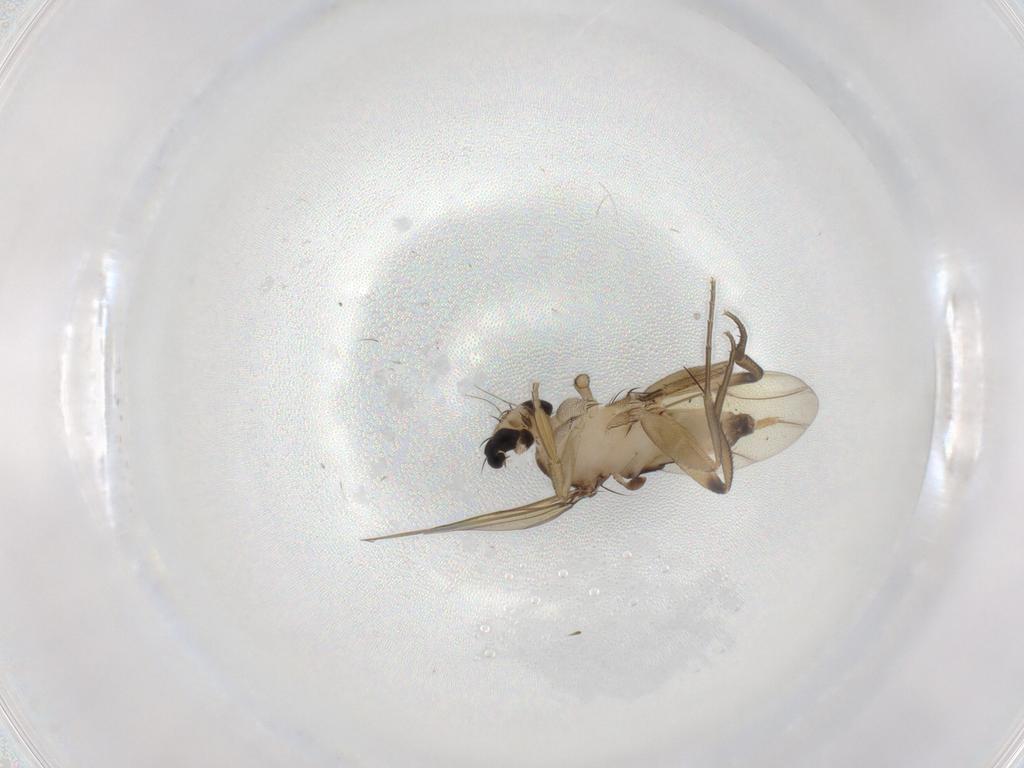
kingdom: Animalia
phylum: Arthropoda
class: Insecta
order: Diptera
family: Phoridae
